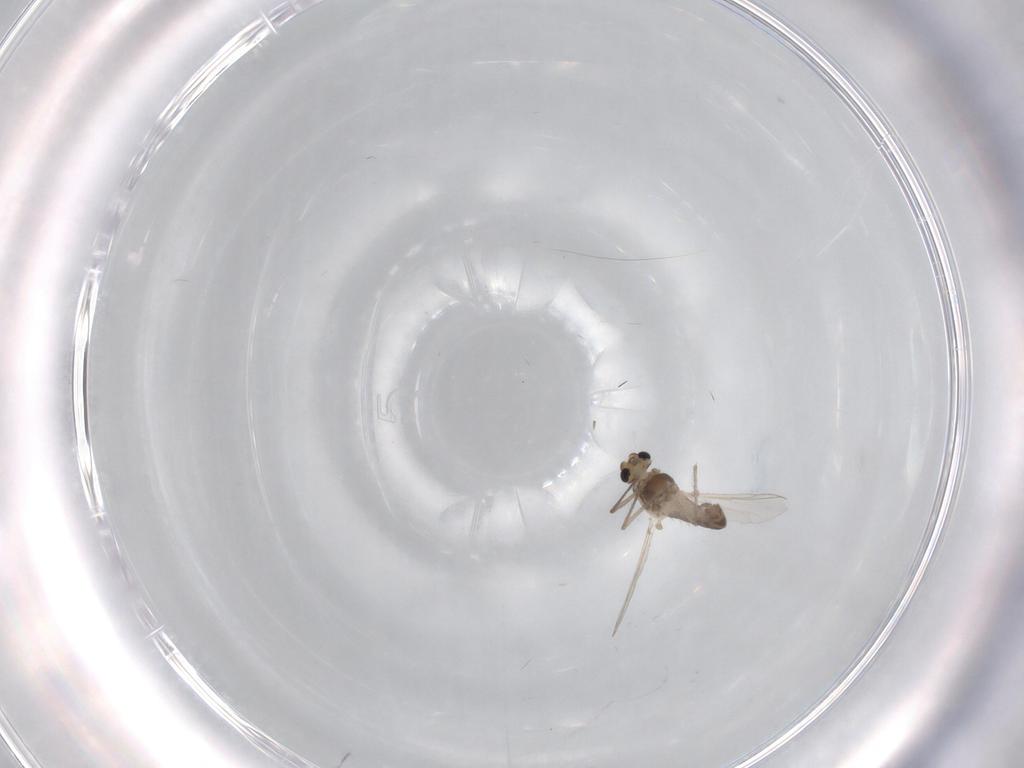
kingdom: Animalia
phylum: Arthropoda
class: Insecta
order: Diptera
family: Chironomidae
